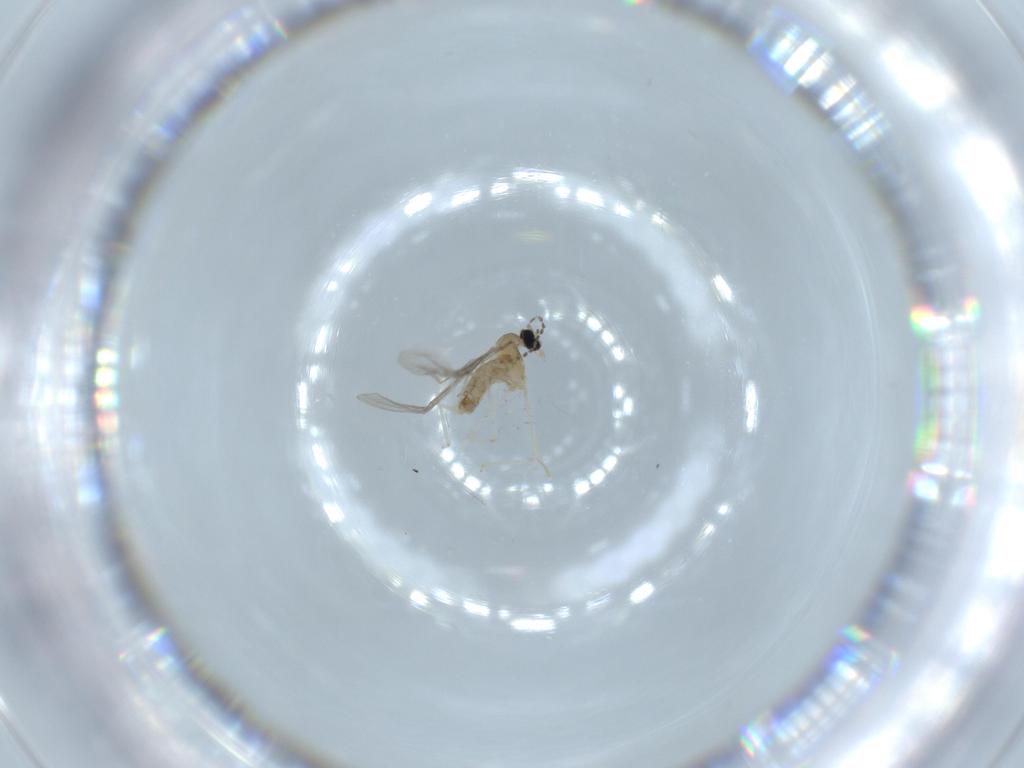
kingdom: Animalia
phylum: Arthropoda
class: Insecta
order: Diptera
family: Cecidomyiidae
